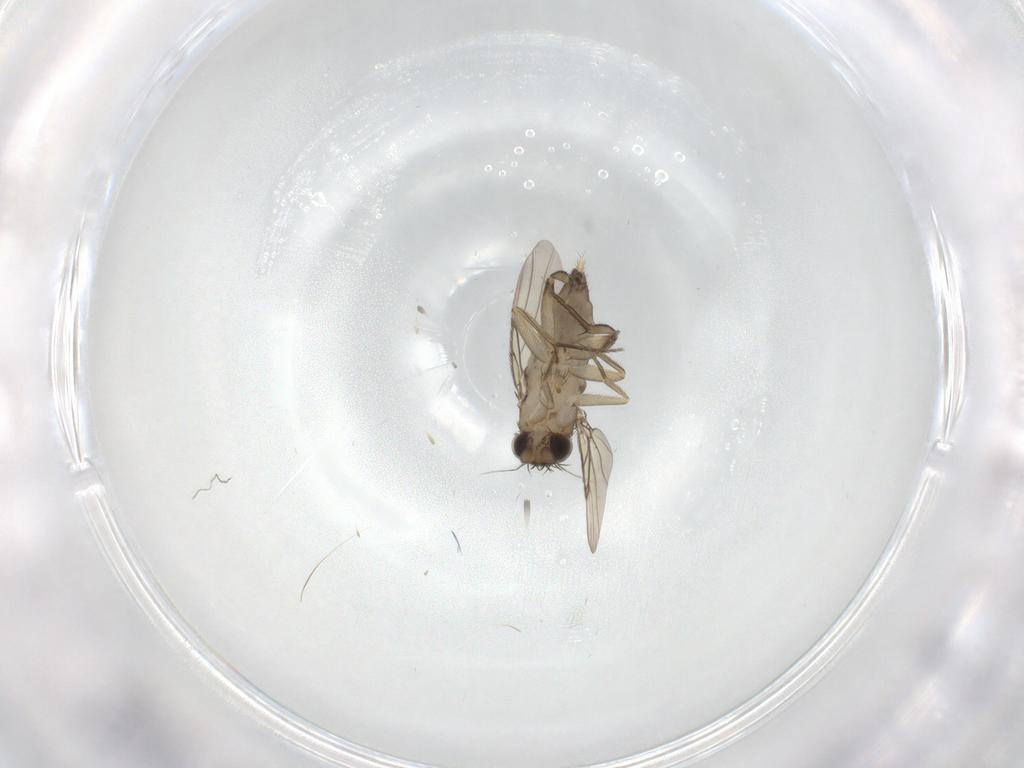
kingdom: Animalia
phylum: Arthropoda
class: Insecta
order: Diptera
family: Phoridae
